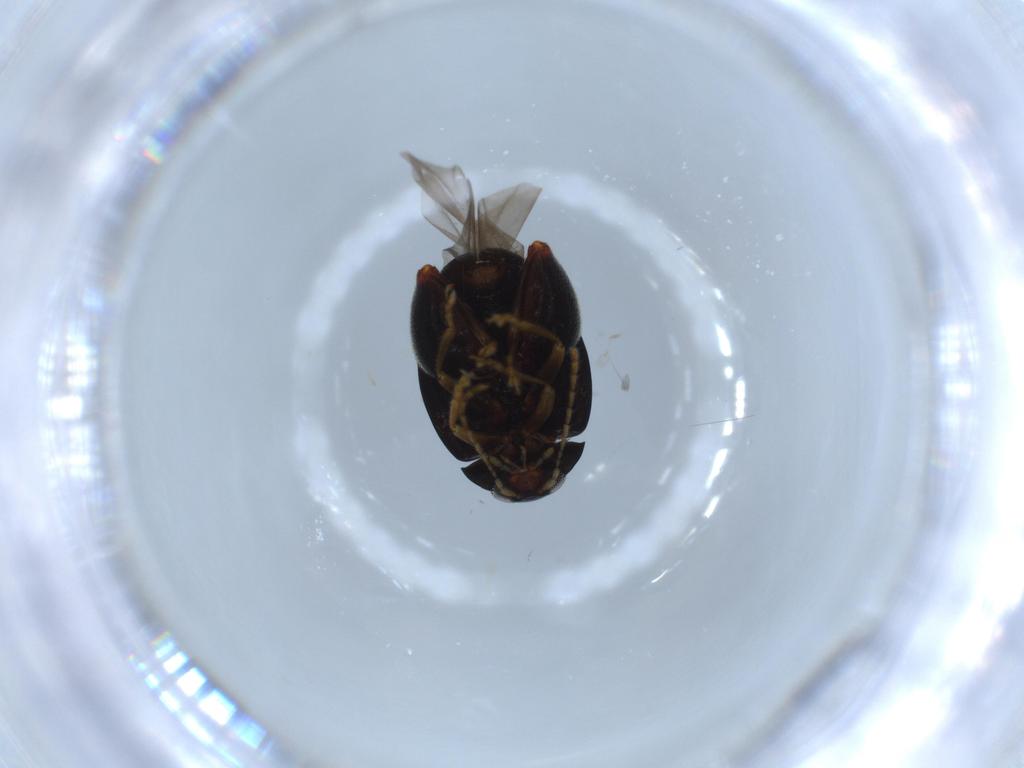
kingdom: Animalia
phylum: Arthropoda
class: Insecta
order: Coleoptera
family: Chrysomelidae
